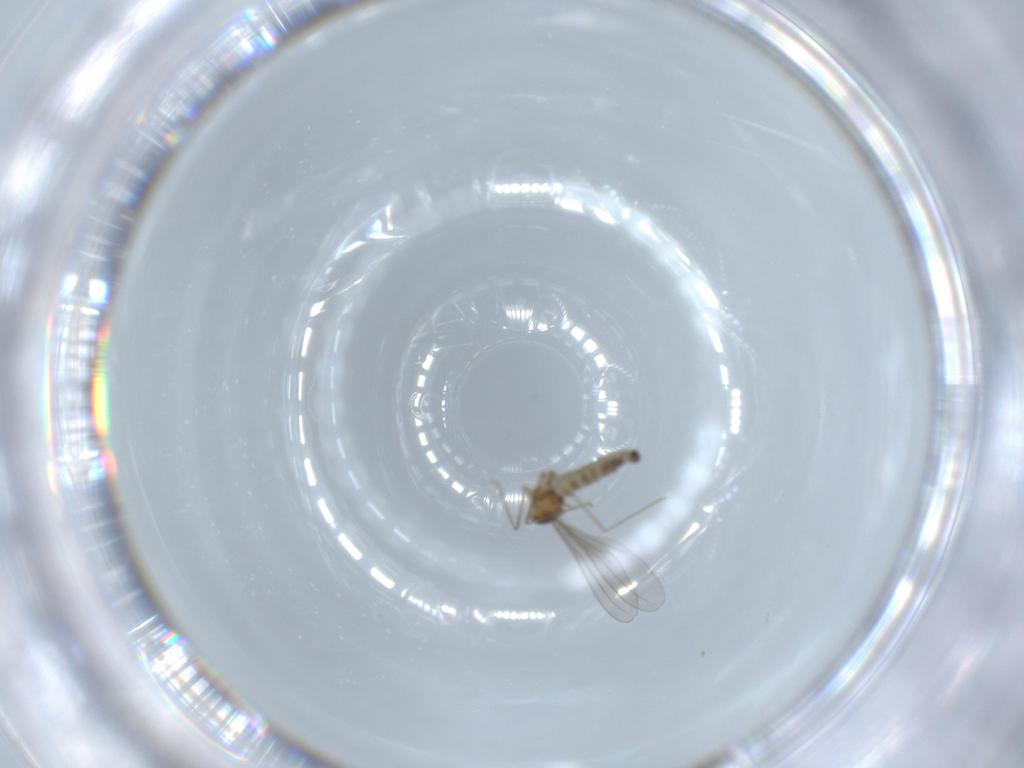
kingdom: Animalia
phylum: Arthropoda
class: Insecta
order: Diptera
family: Cecidomyiidae
